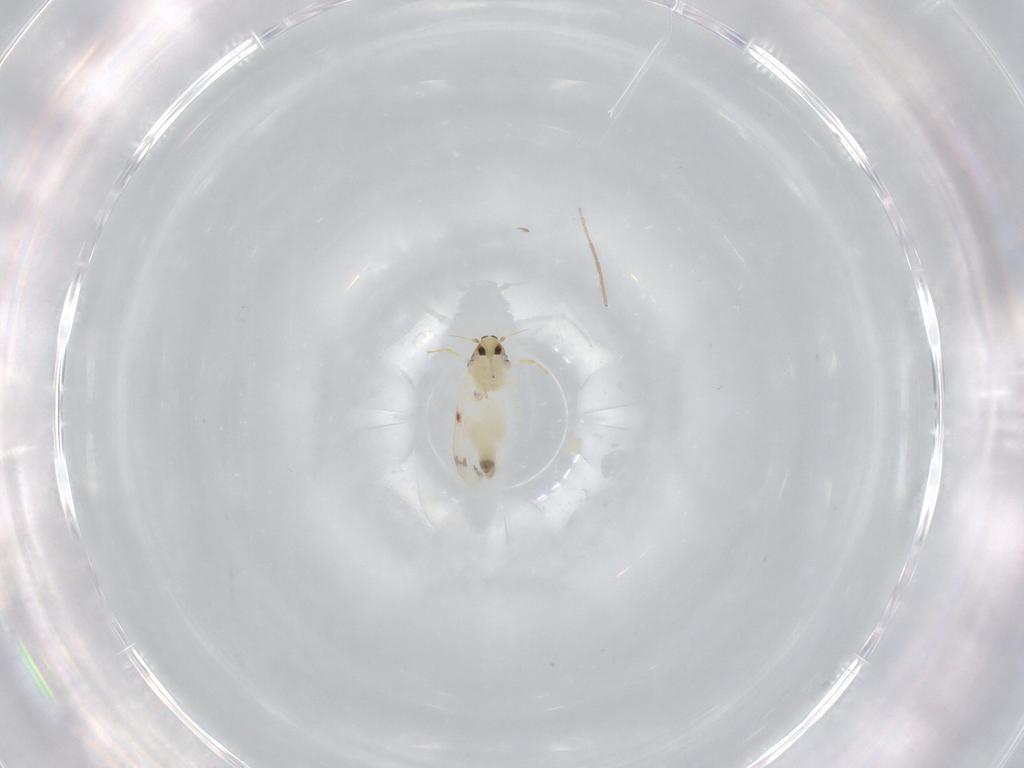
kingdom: Animalia
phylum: Arthropoda
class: Insecta
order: Hemiptera
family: Aleyrodidae
